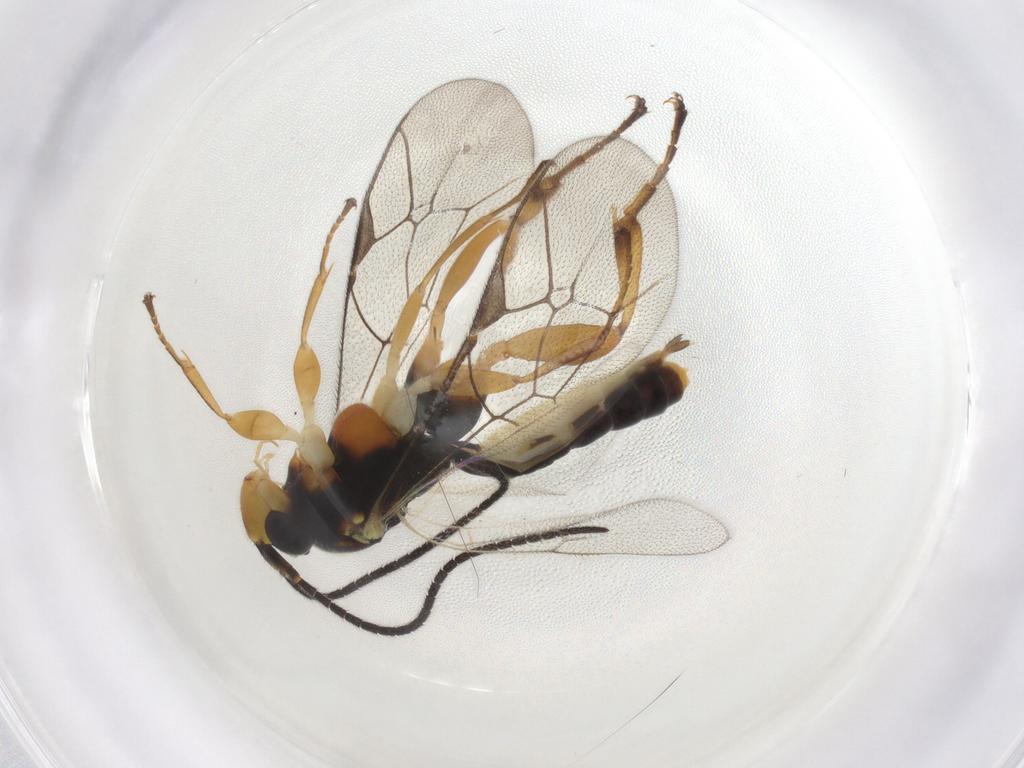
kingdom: Animalia
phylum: Arthropoda
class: Insecta
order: Hymenoptera
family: Ichneumonidae
